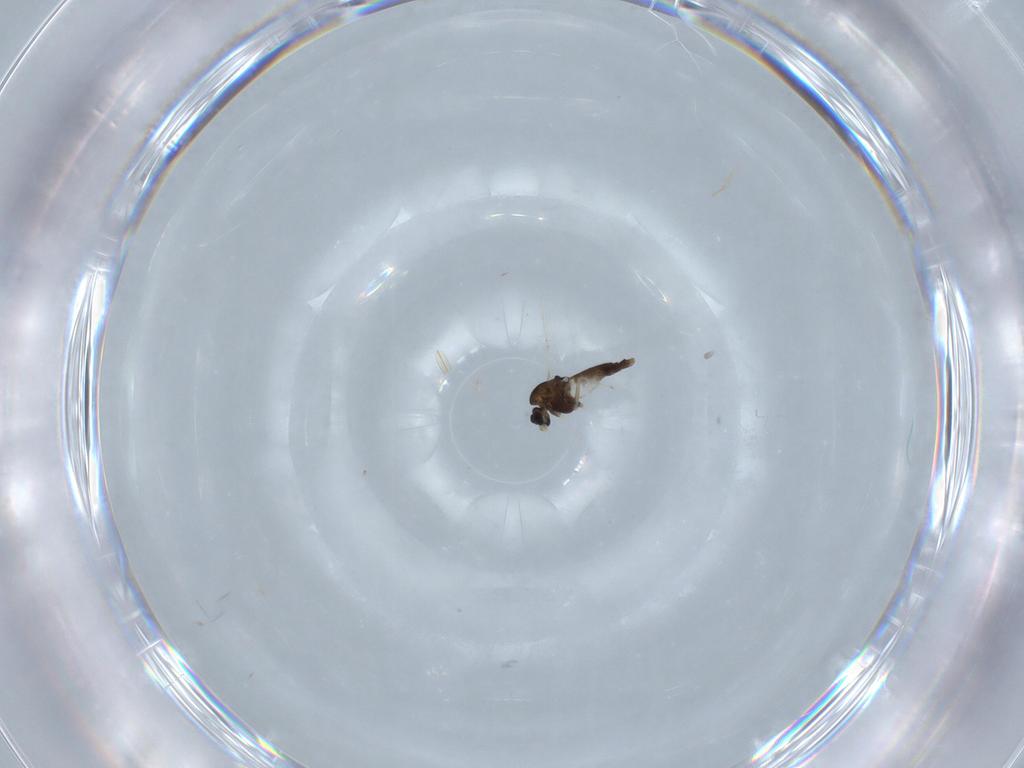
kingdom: Animalia
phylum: Arthropoda
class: Insecta
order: Diptera
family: Chironomidae
